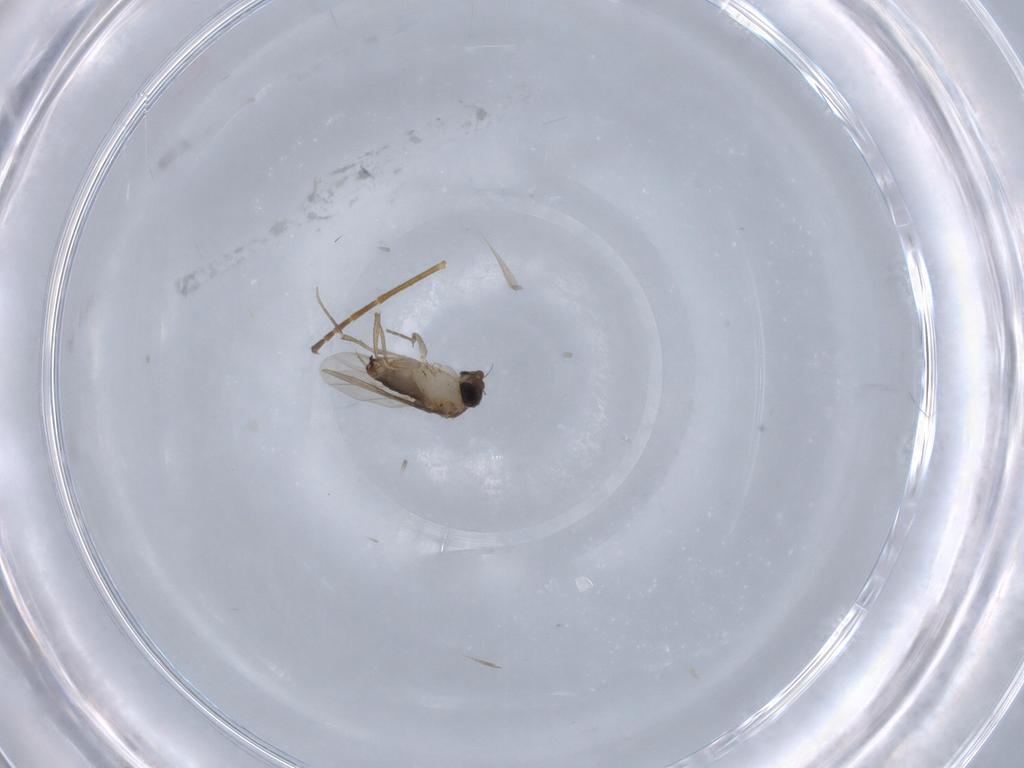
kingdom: Animalia
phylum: Arthropoda
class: Insecta
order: Diptera
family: Phoridae
